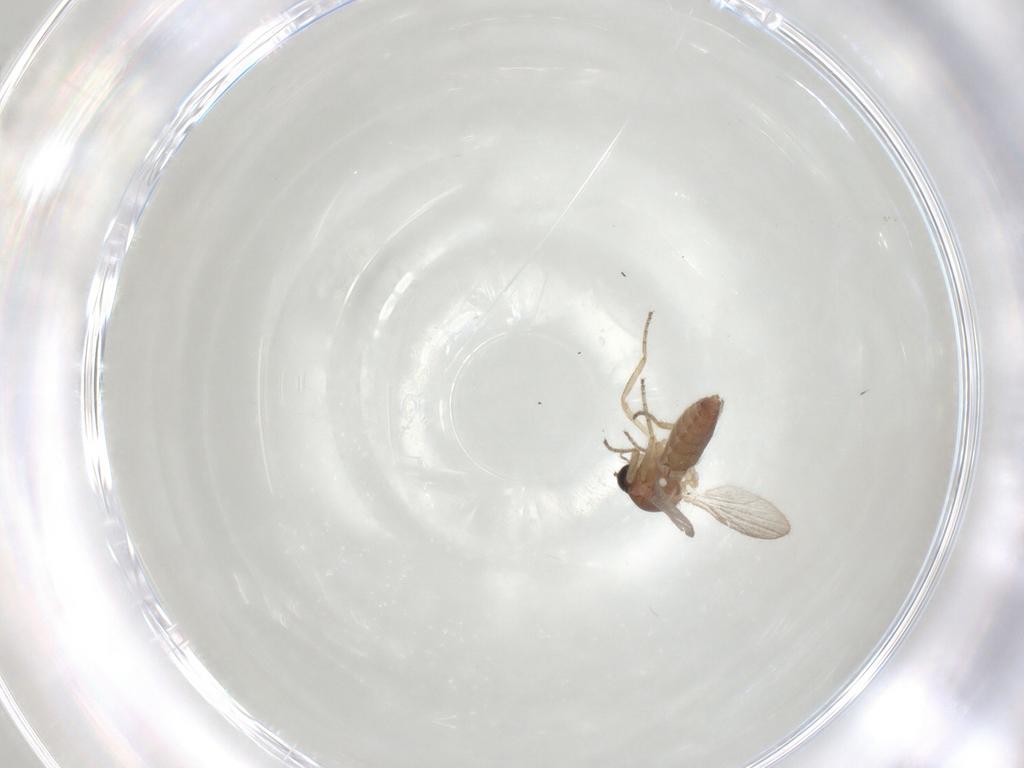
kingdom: Animalia
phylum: Arthropoda
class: Insecta
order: Diptera
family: Ceratopogonidae
